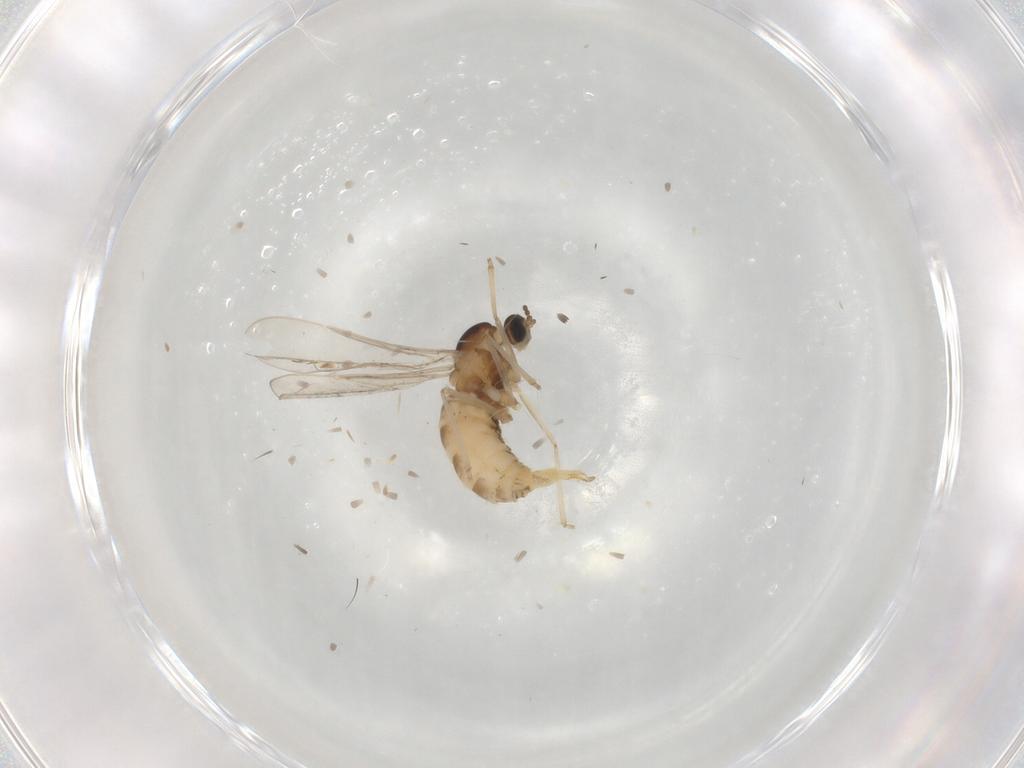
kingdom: Animalia
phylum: Arthropoda
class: Insecta
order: Diptera
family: Cecidomyiidae
